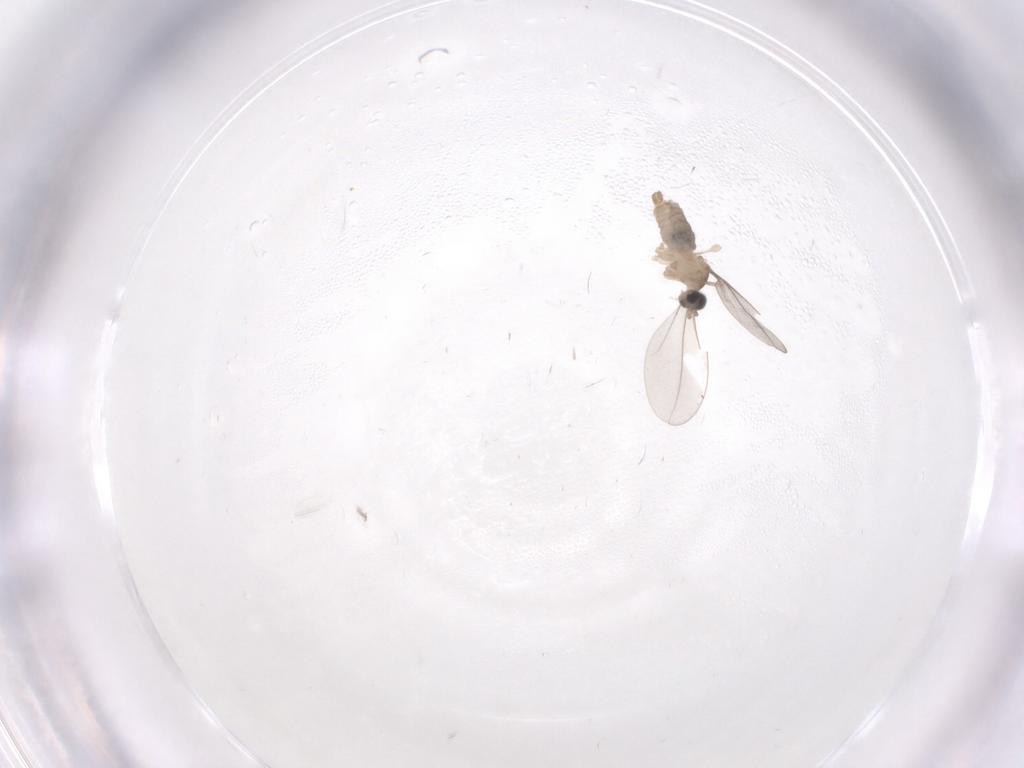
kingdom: Animalia
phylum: Arthropoda
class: Insecta
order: Diptera
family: Cecidomyiidae
